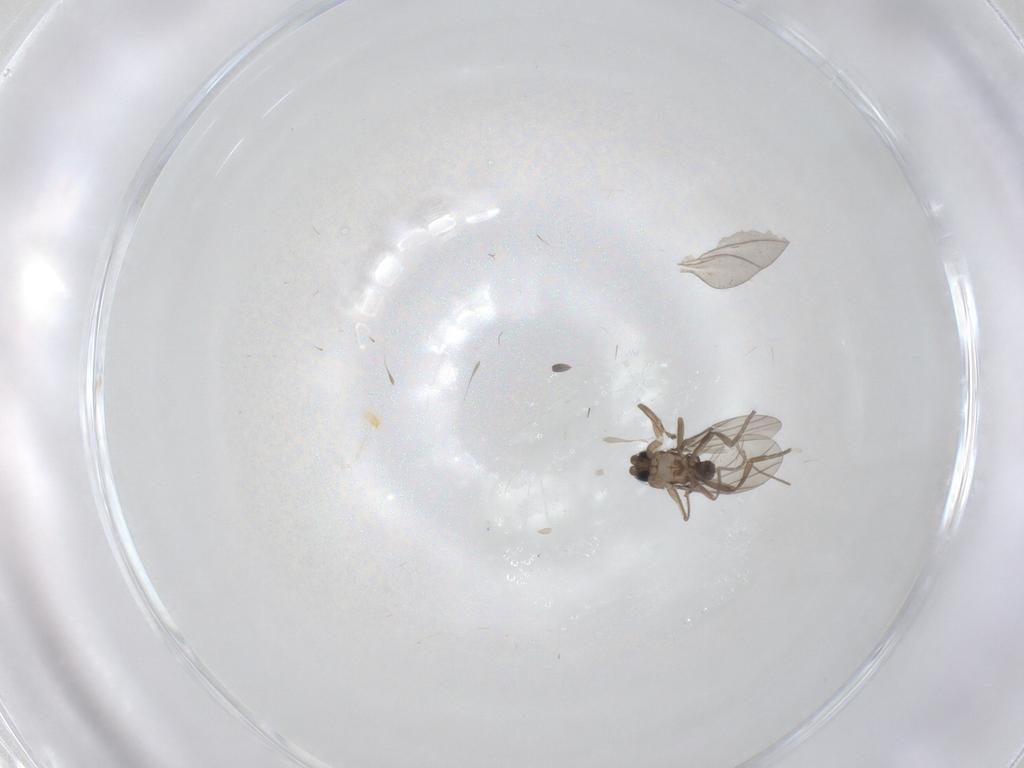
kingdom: Animalia
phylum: Arthropoda
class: Insecta
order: Diptera
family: Chironomidae
